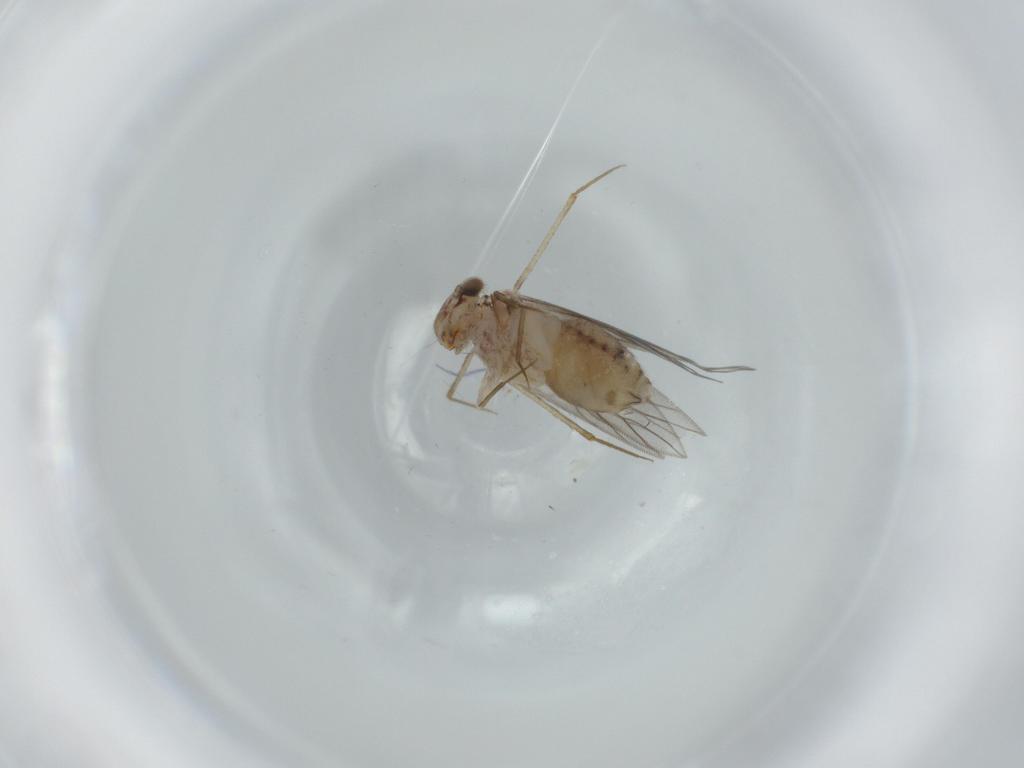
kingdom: Animalia
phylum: Arthropoda
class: Insecta
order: Psocodea
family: Lepidopsocidae
